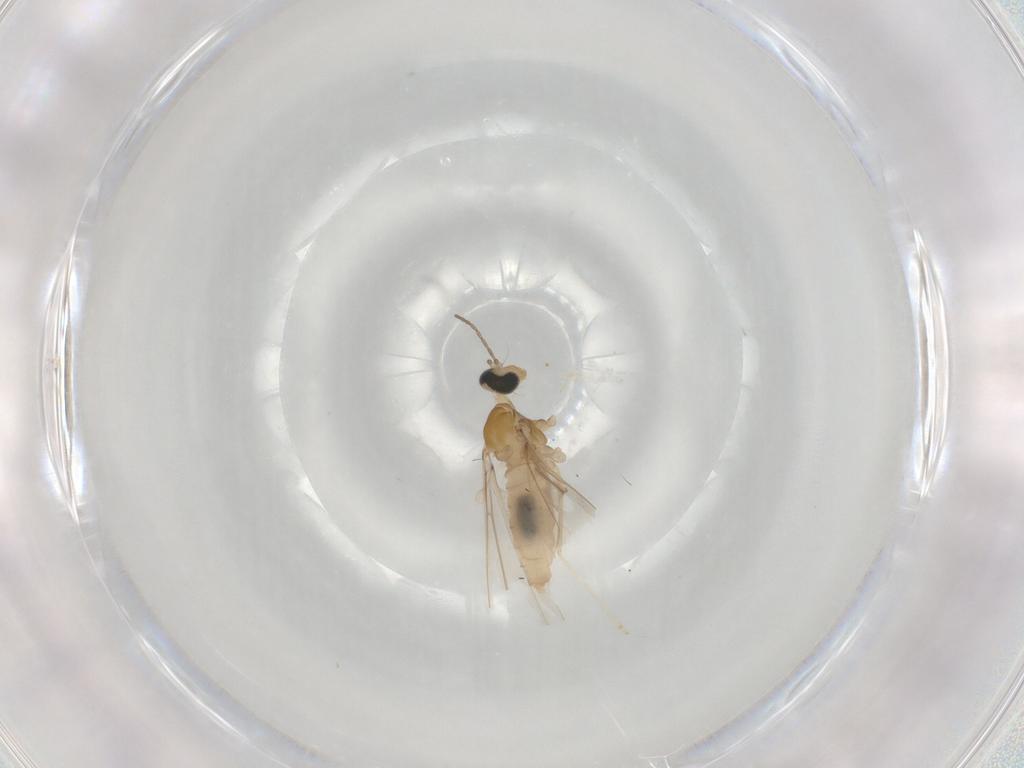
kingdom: Animalia
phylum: Arthropoda
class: Insecta
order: Diptera
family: Cecidomyiidae
